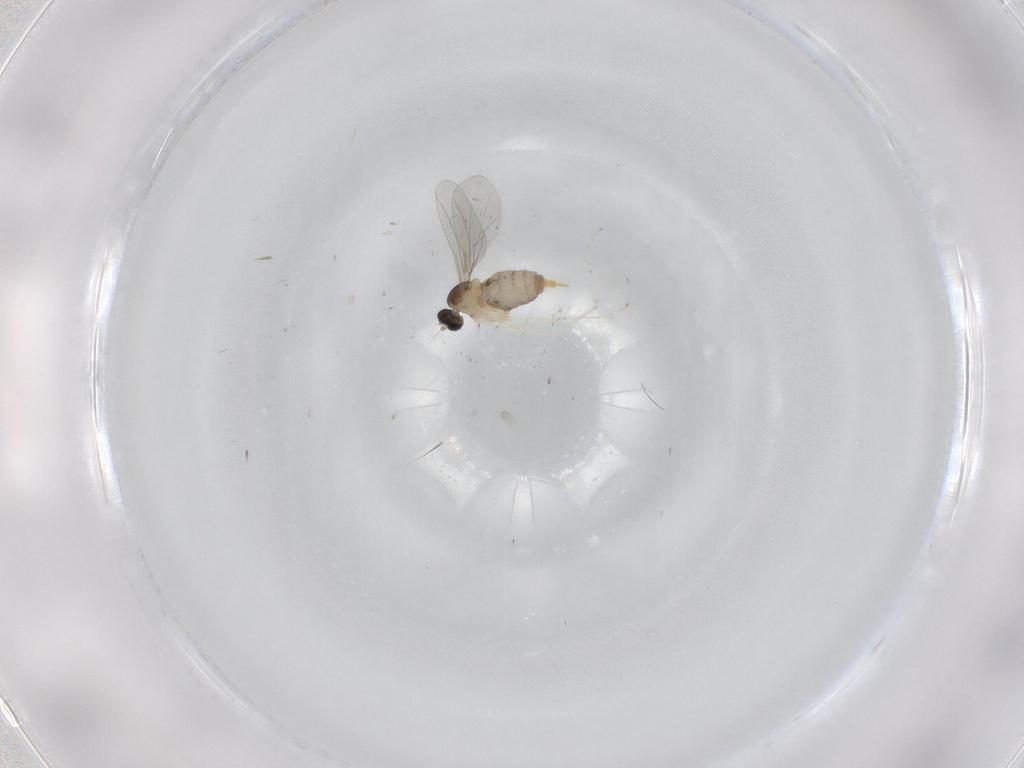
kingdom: Animalia
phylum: Arthropoda
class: Insecta
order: Diptera
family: Cecidomyiidae
